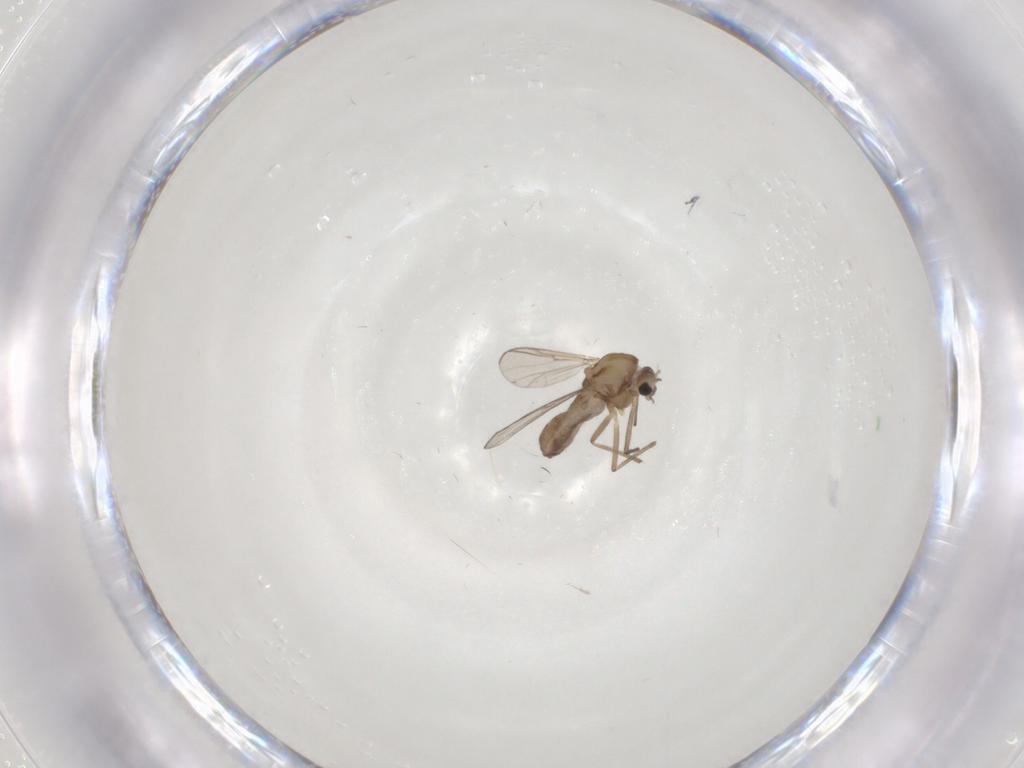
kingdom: Animalia
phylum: Arthropoda
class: Insecta
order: Diptera
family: Chironomidae
